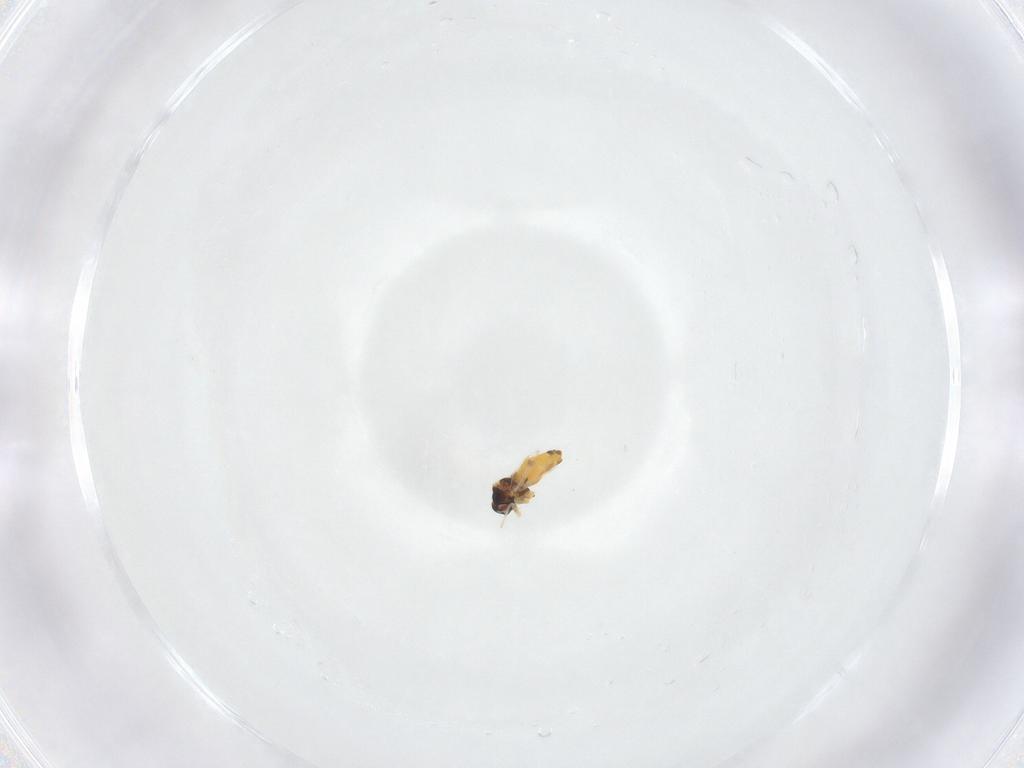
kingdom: Animalia
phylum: Arthropoda
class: Insecta
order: Hemiptera
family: Aleyrodidae
